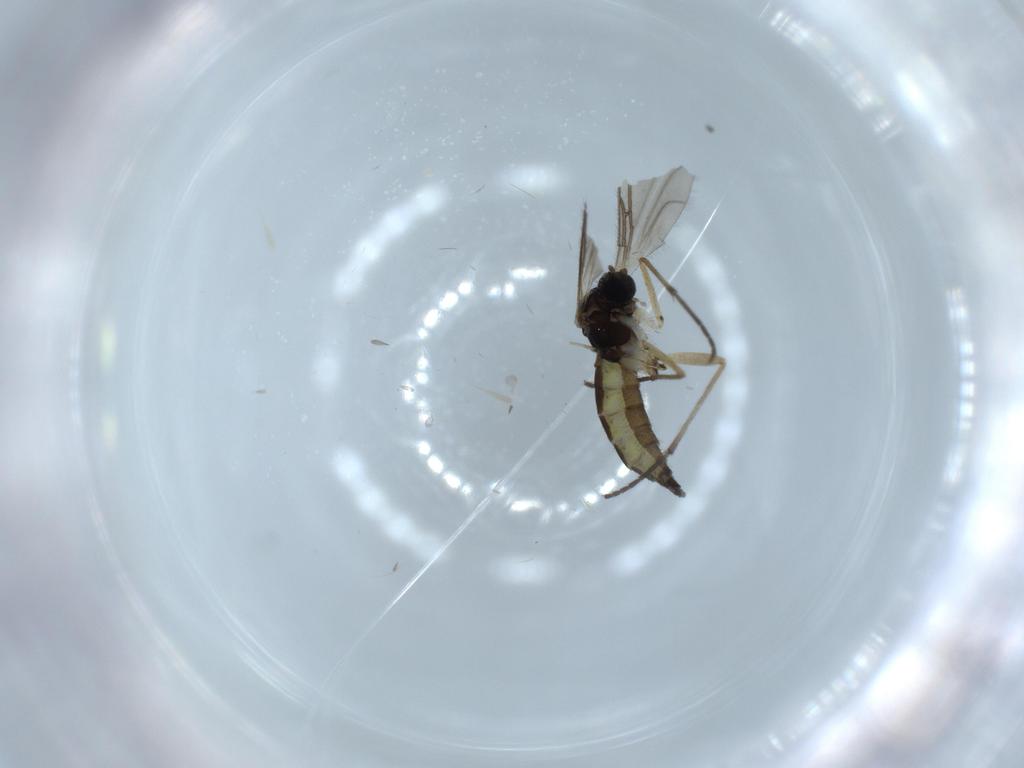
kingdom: Animalia
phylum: Arthropoda
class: Insecta
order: Diptera
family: Sciaridae
